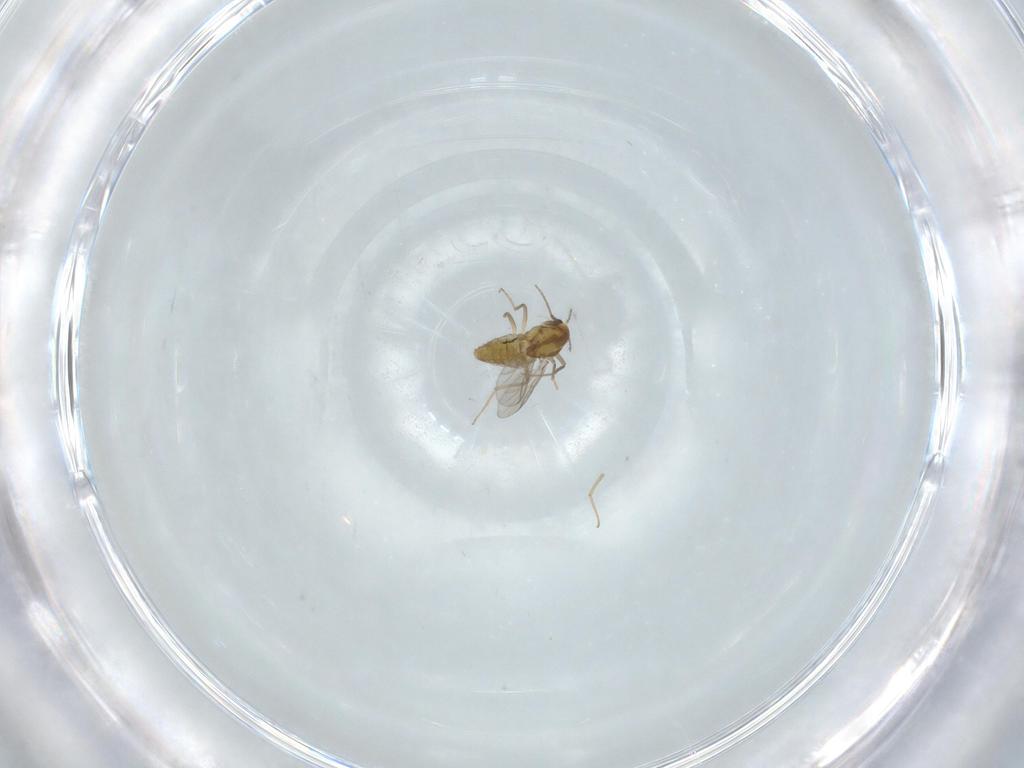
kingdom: Animalia
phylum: Arthropoda
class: Insecta
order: Diptera
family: Chironomidae
